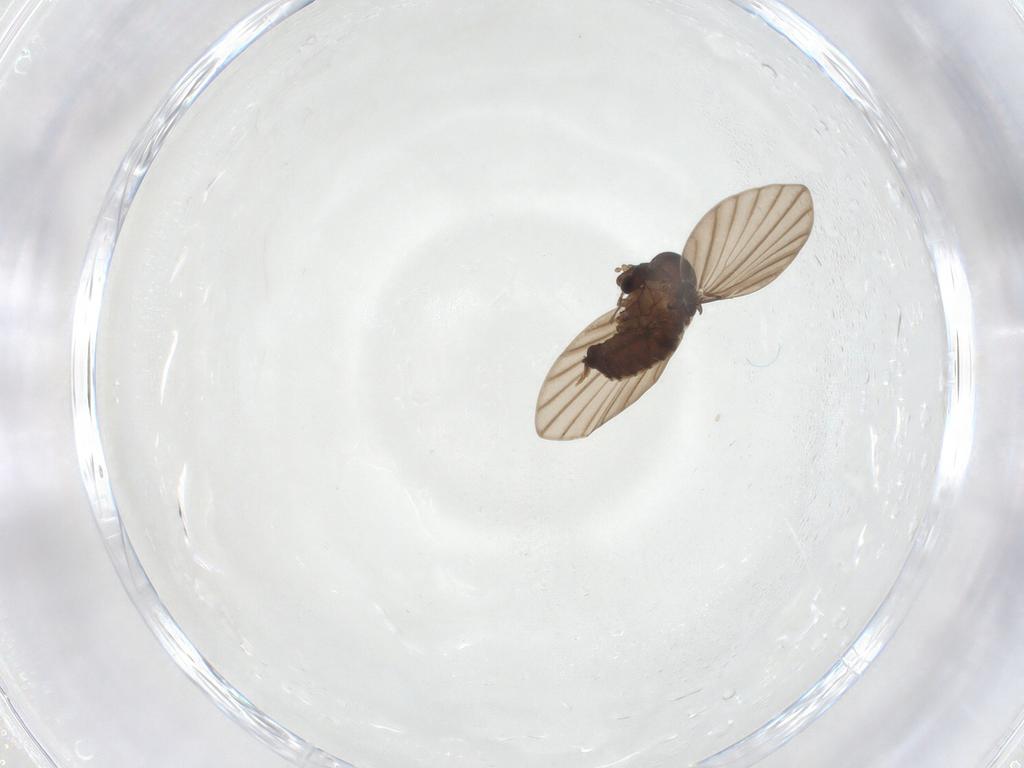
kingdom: Animalia
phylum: Arthropoda
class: Insecta
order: Diptera
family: Psychodidae
